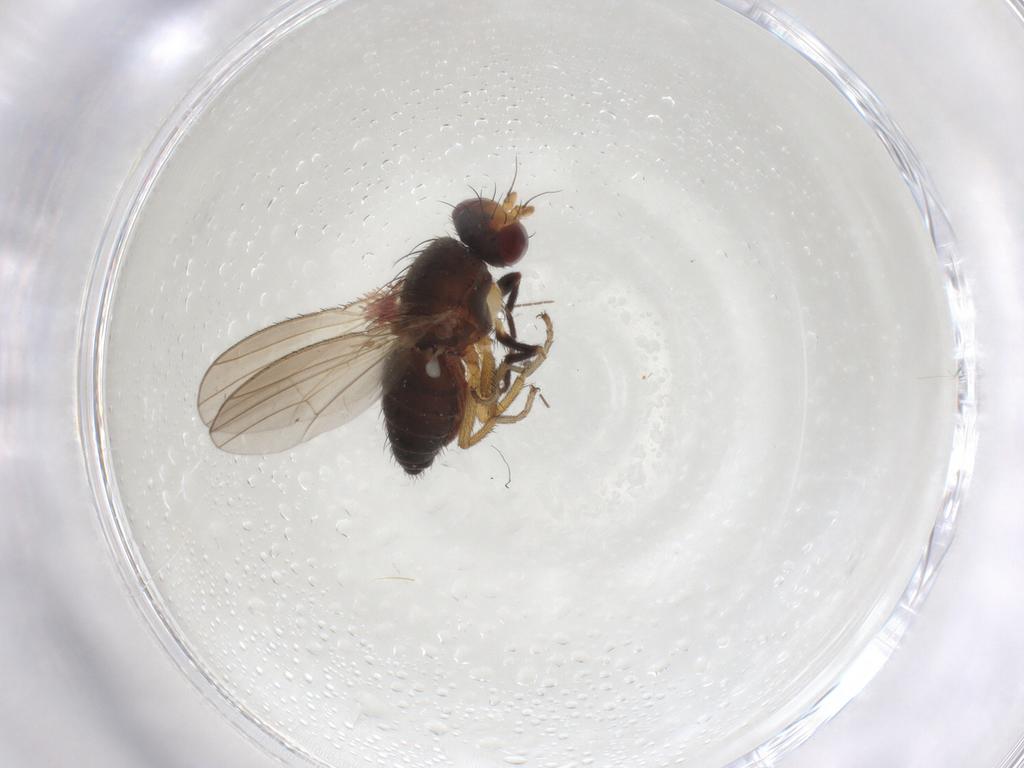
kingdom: Animalia
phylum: Arthropoda
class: Insecta
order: Diptera
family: Heleomyzidae
